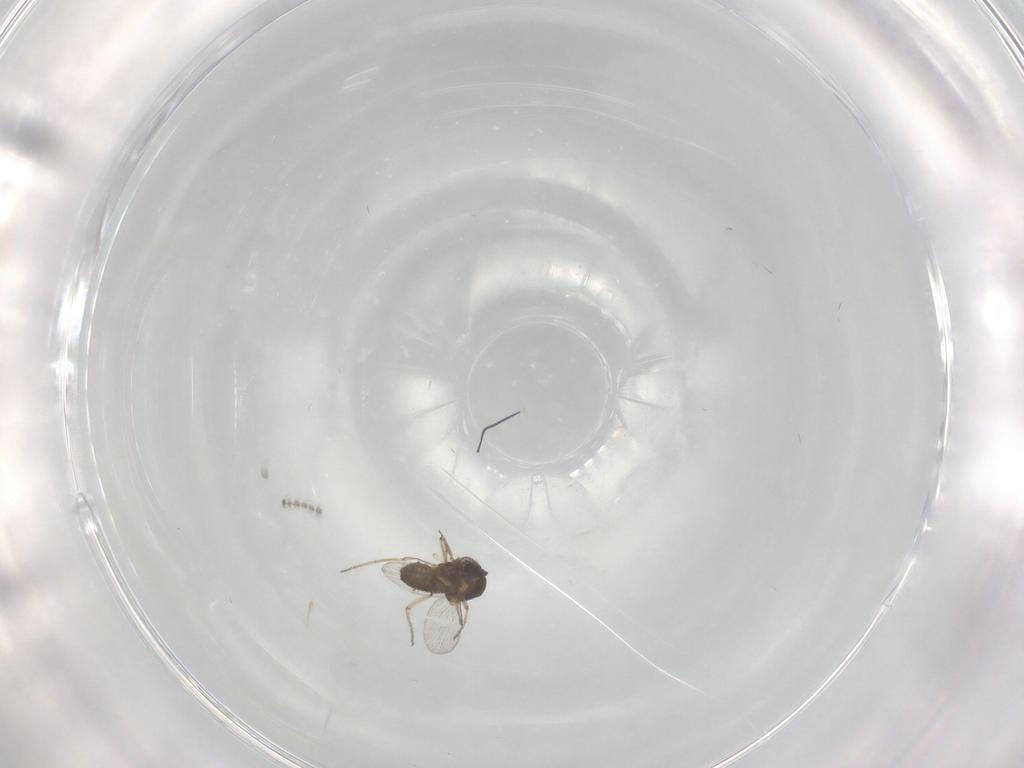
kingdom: Animalia
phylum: Arthropoda
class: Insecta
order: Diptera
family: Ceratopogonidae
